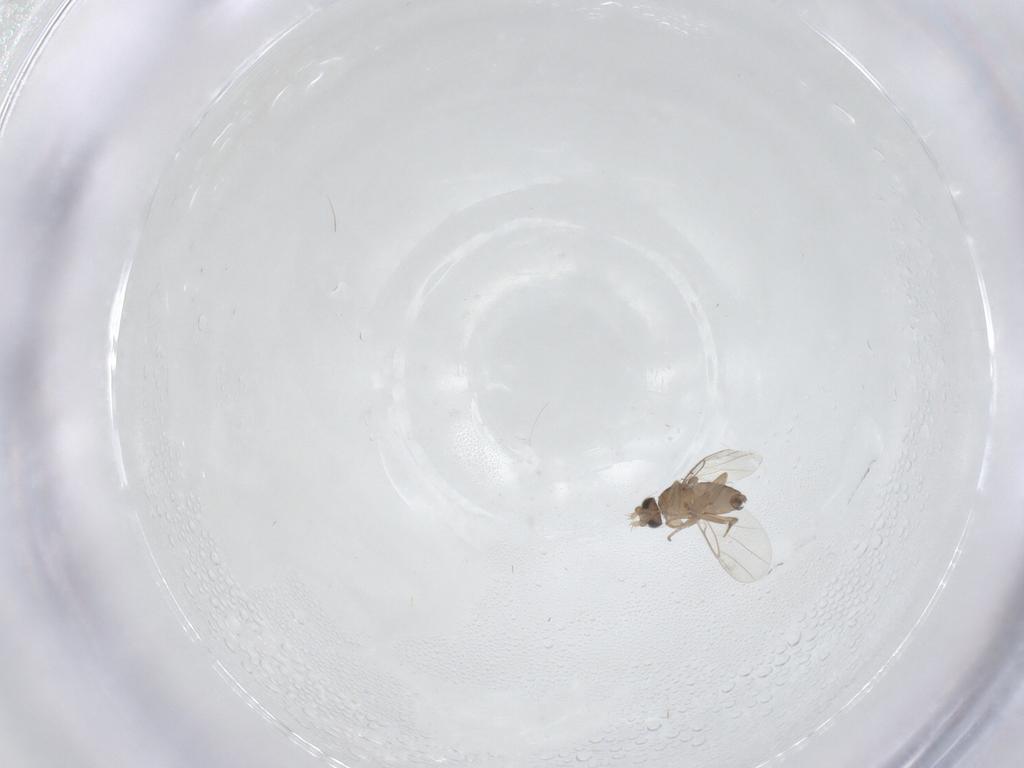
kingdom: Animalia
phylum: Arthropoda
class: Insecta
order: Diptera
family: Phoridae
